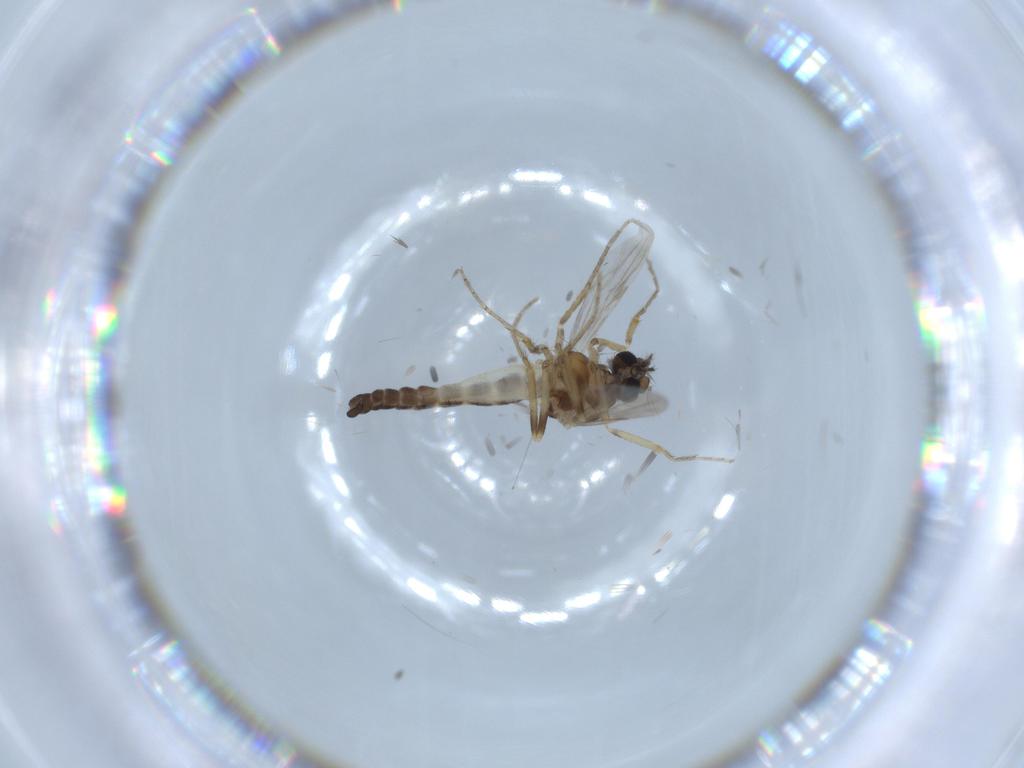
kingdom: Animalia
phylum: Arthropoda
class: Insecta
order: Diptera
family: Ceratopogonidae
